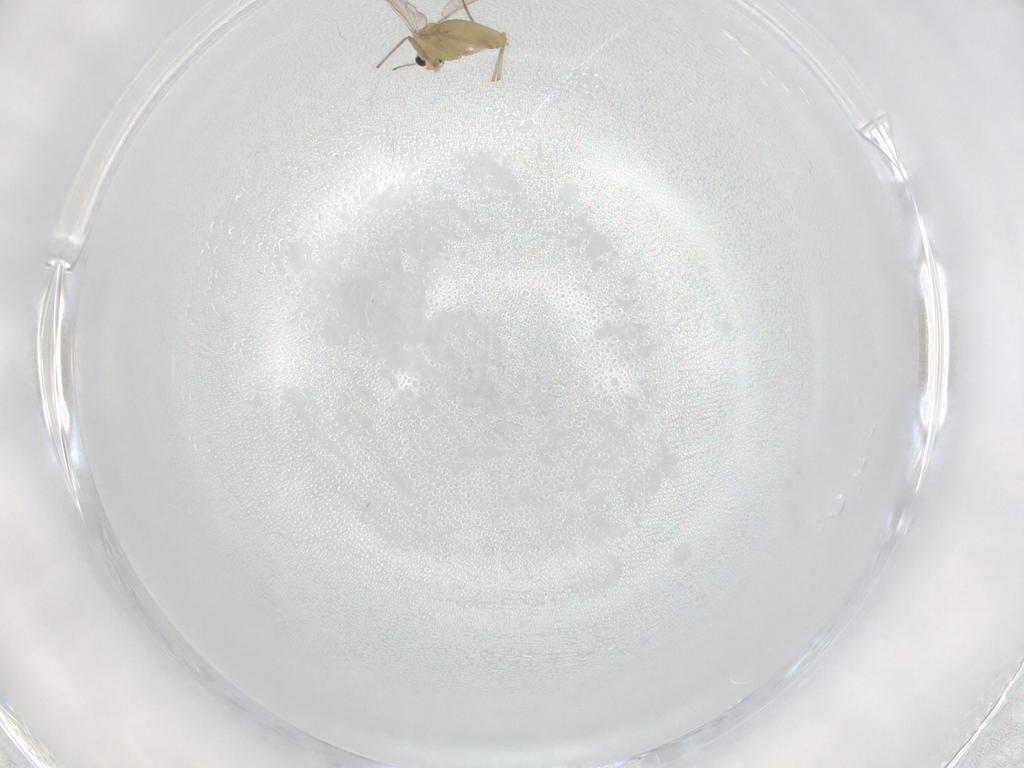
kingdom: Animalia
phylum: Arthropoda
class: Insecta
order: Diptera
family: Chironomidae
